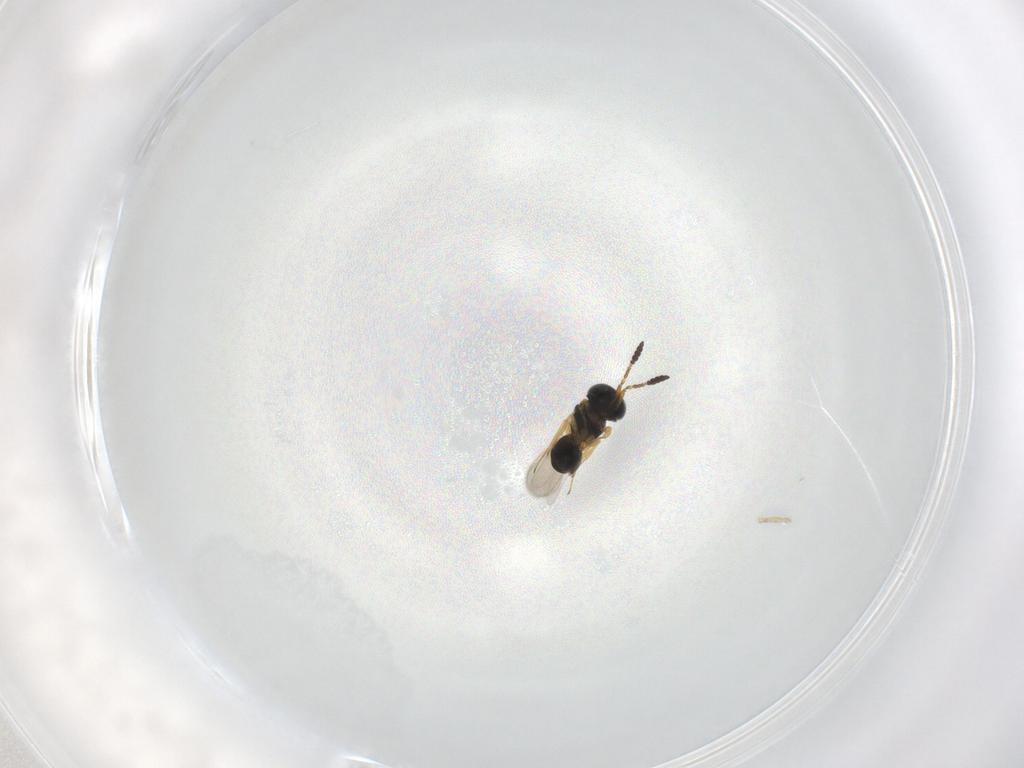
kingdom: Animalia
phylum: Arthropoda
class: Insecta
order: Hymenoptera
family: Scelionidae
